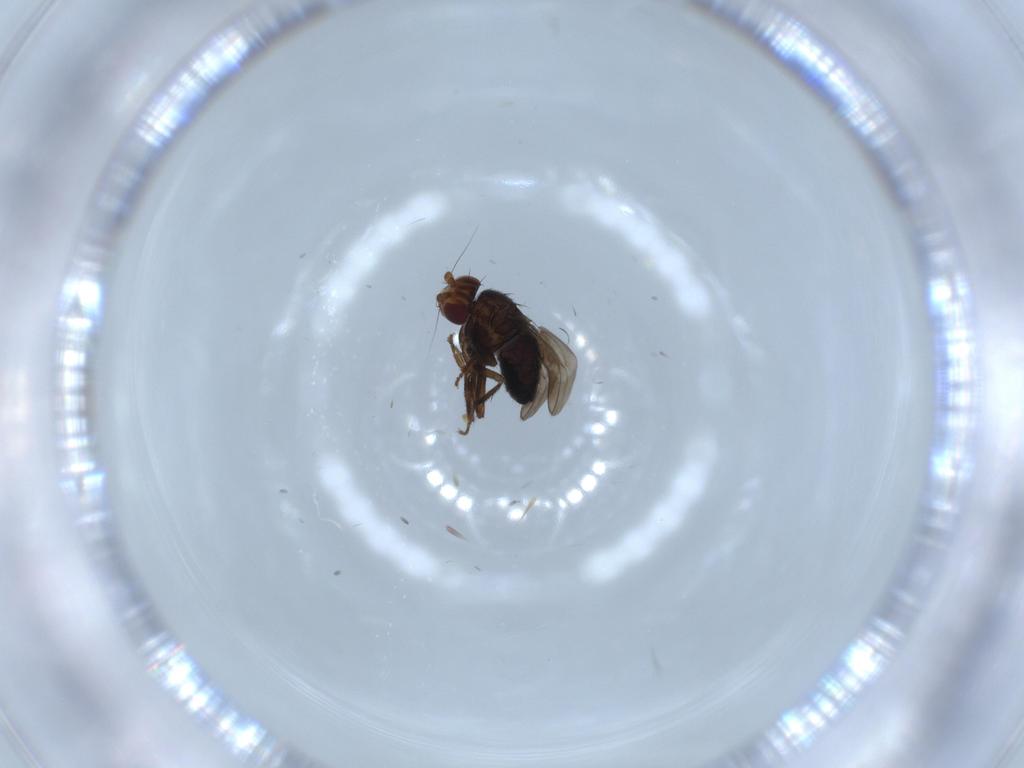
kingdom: Animalia
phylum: Arthropoda
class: Insecta
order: Diptera
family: Sphaeroceridae
